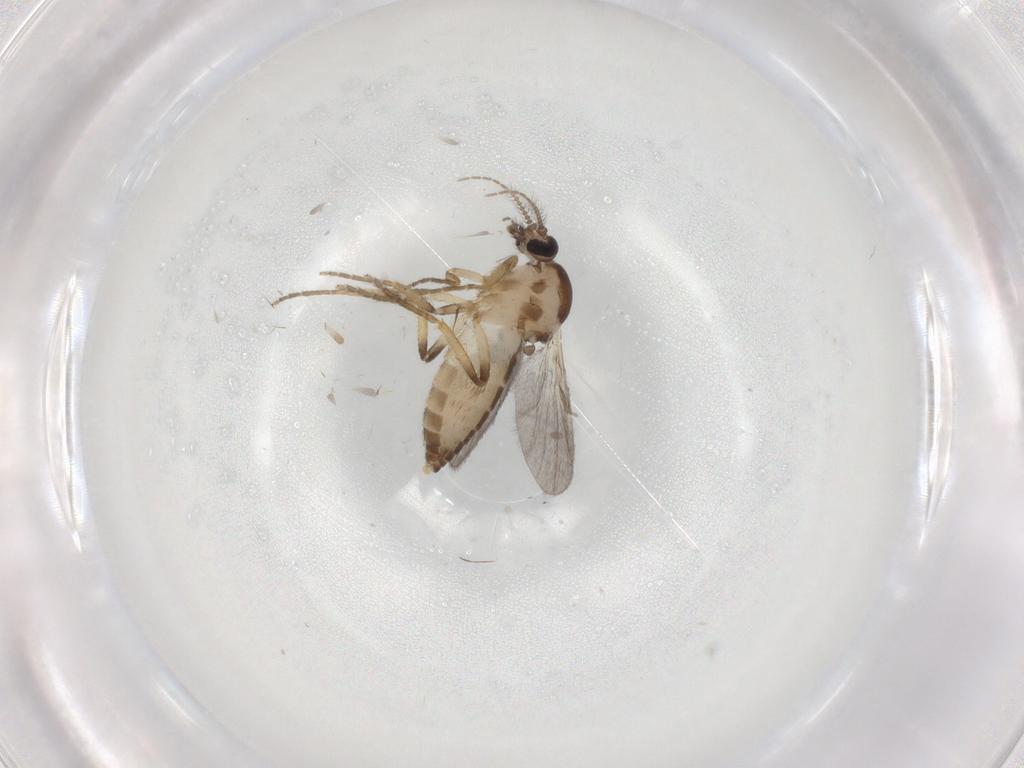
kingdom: Animalia
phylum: Arthropoda
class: Insecta
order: Diptera
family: Ceratopogonidae
